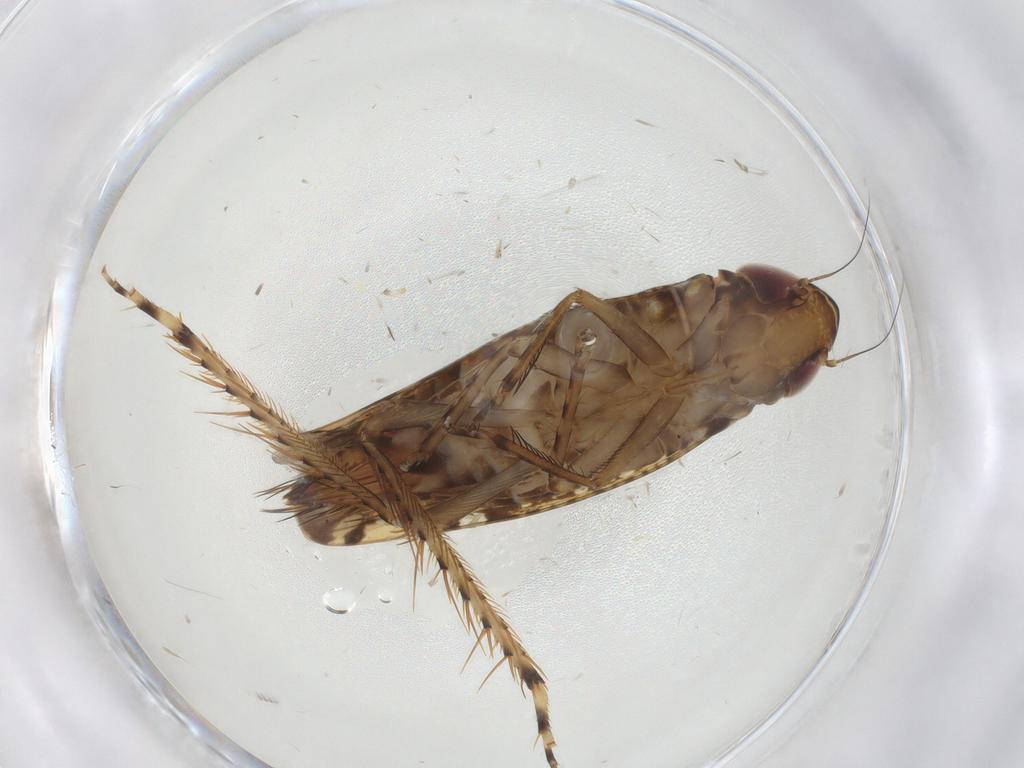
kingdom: Animalia
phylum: Arthropoda
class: Insecta
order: Hemiptera
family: Cicadellidae
